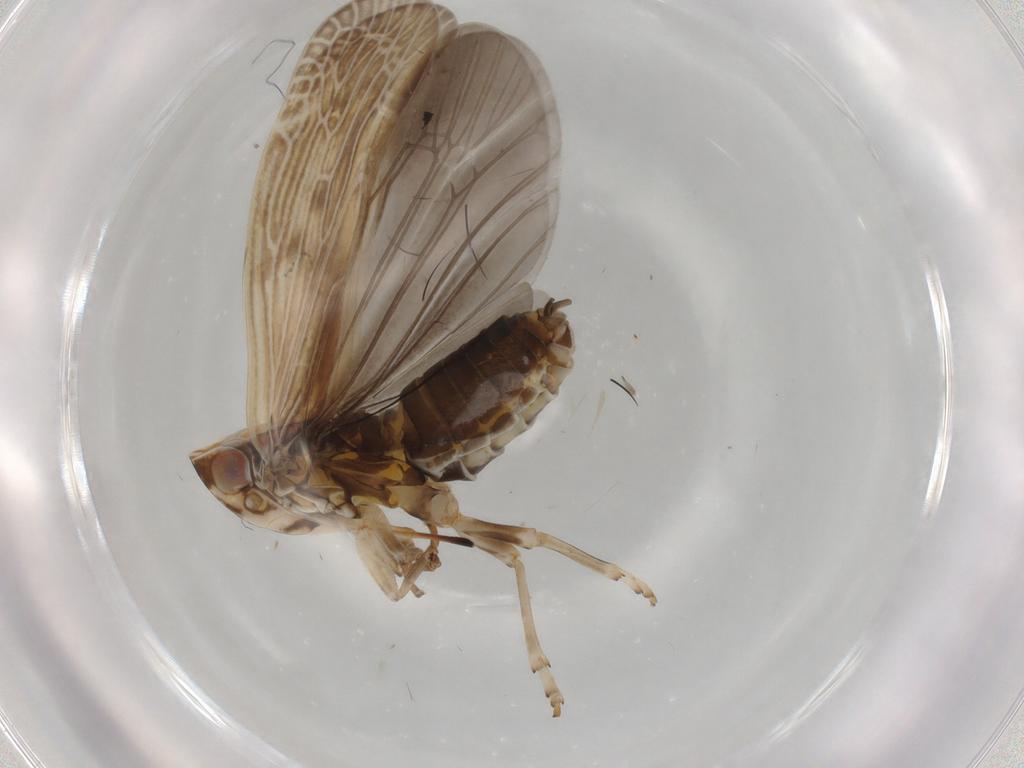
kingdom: Animalia
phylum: Arthropoda
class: Insecta
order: Hemiptera
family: Achilidae
